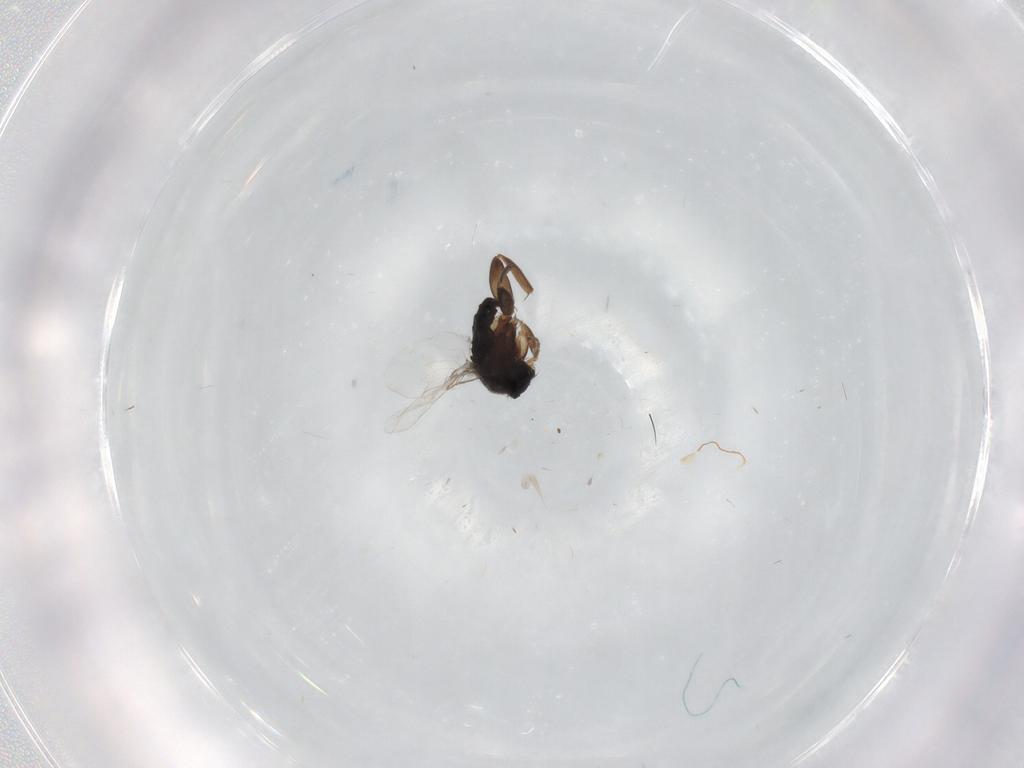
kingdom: Animalia
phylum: Arthropoda
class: Insecta
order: Diptera
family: Phoridae
